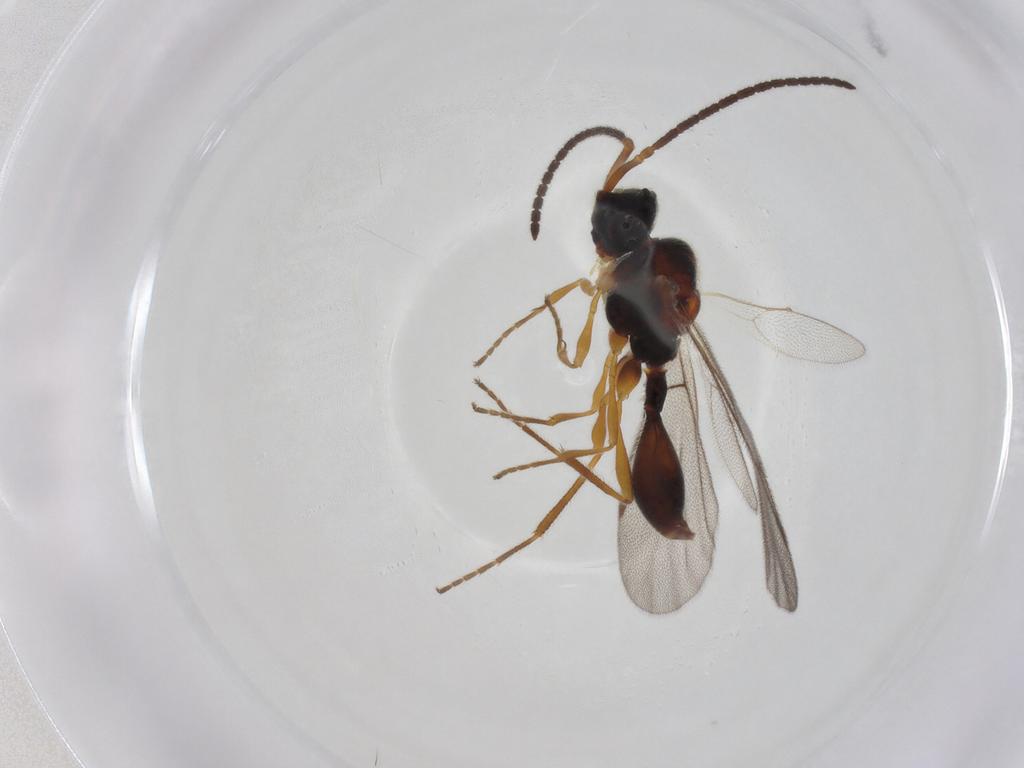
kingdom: Animalia
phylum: Arthropoda
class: Insecta
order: Hymenoptera
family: Diapriidae
